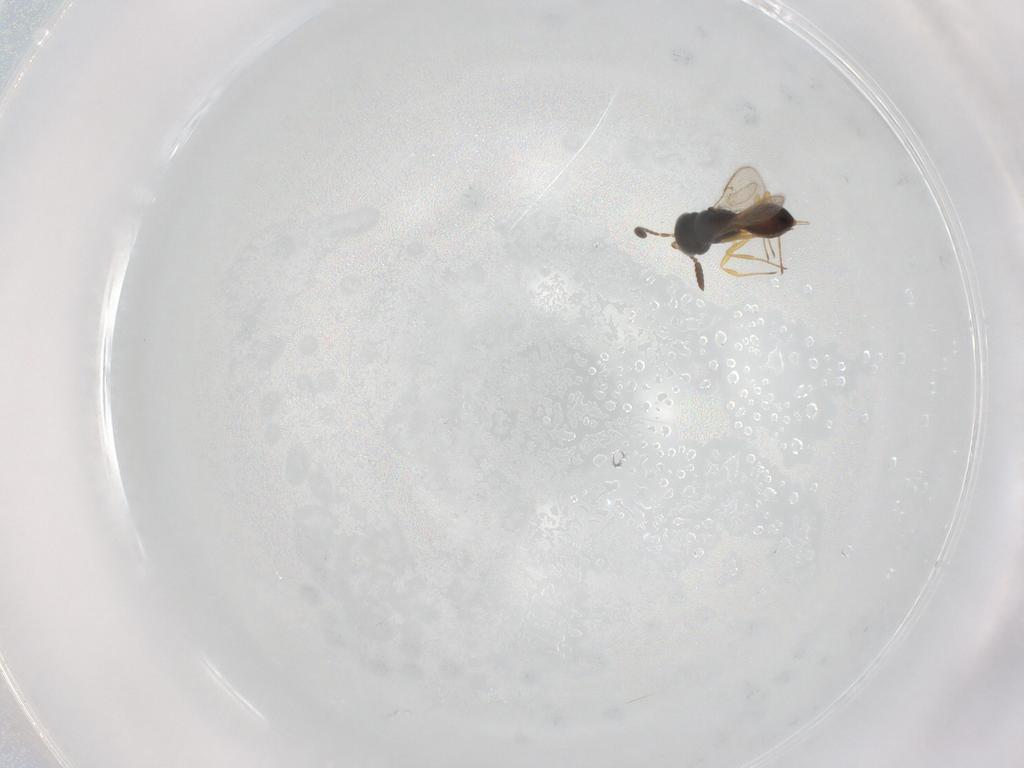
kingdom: Animalia
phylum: Arthropoda
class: Insecta
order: Hymenoptera
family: Scelionidae
